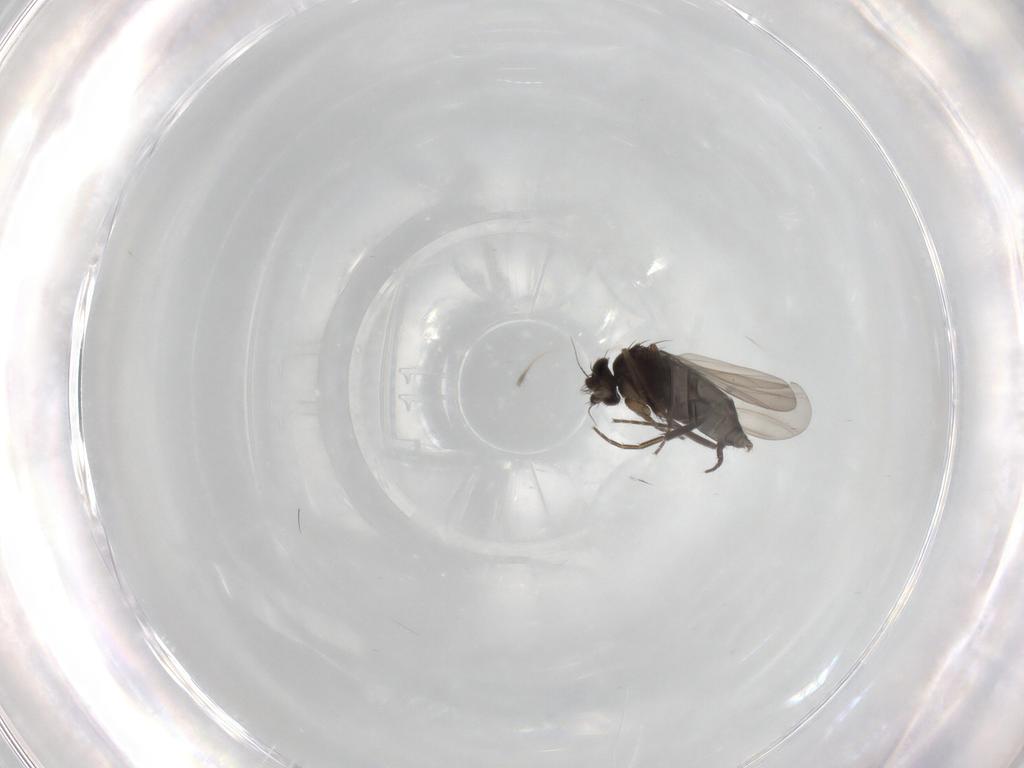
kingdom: Animalia
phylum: Arthropoda
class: Insecta
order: Diptera
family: Phoridae
